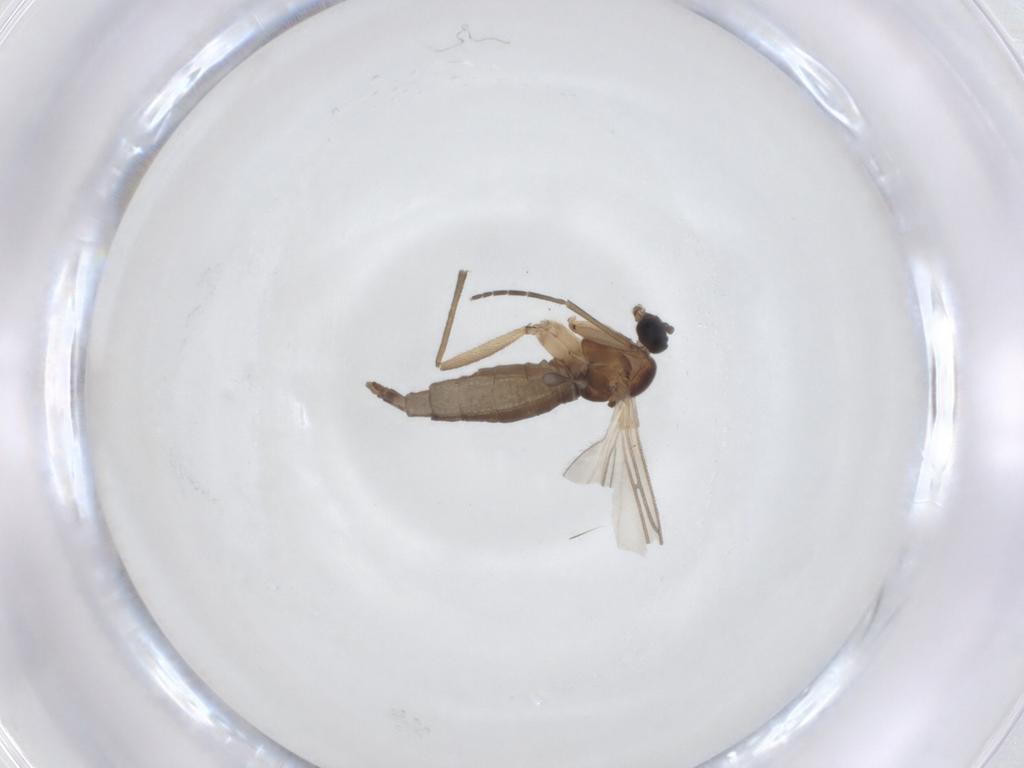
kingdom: Animalia
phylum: Arthropoda
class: Insecta
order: Diptera
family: Sciaridae
